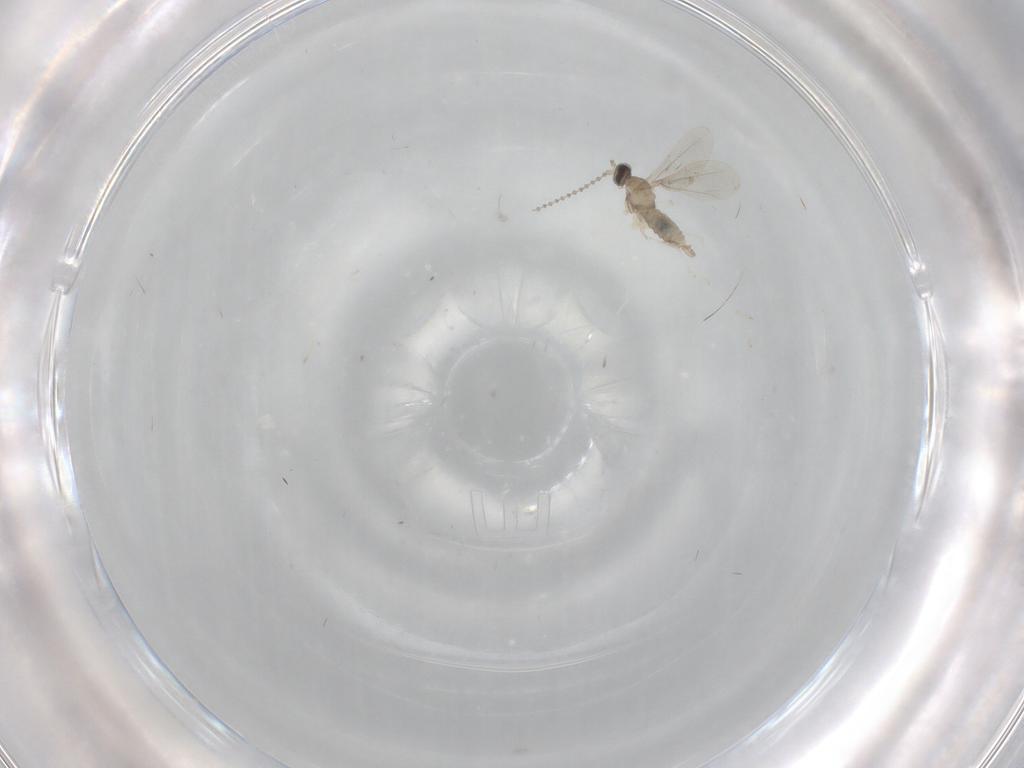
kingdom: Animalia
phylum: Arthropoda
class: Insecta
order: Diptera
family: Cecidomyiidae
